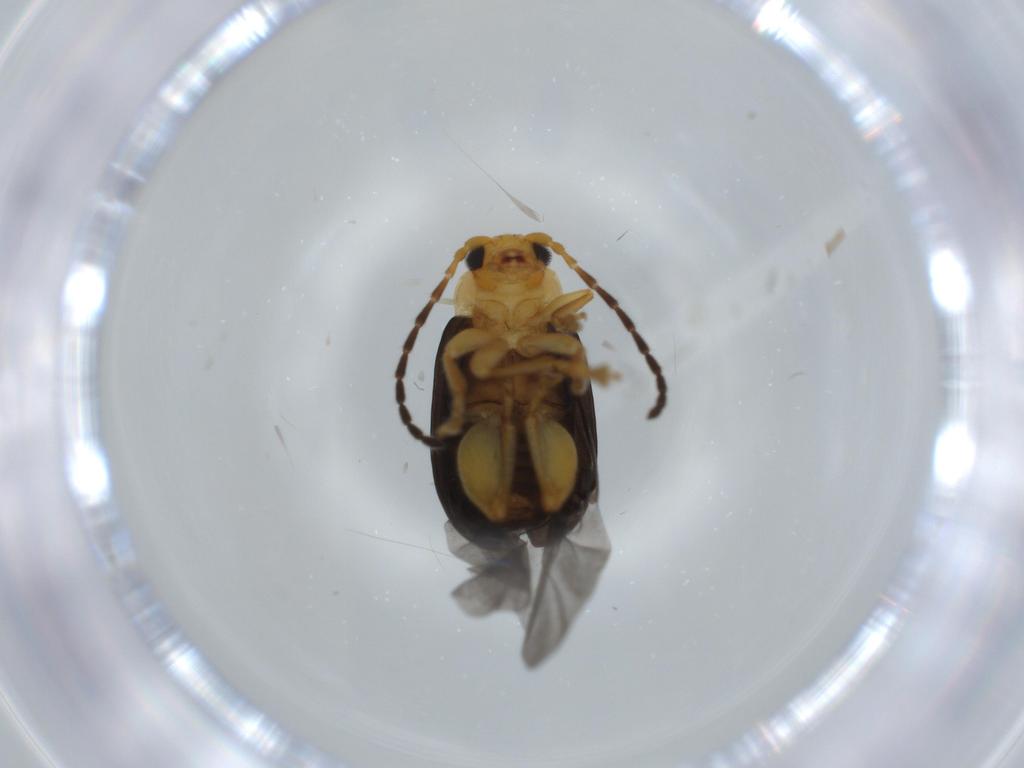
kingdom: Animalia
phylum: Arthropoda
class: Insecta
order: Coleoptera
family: Chrysomelidae
